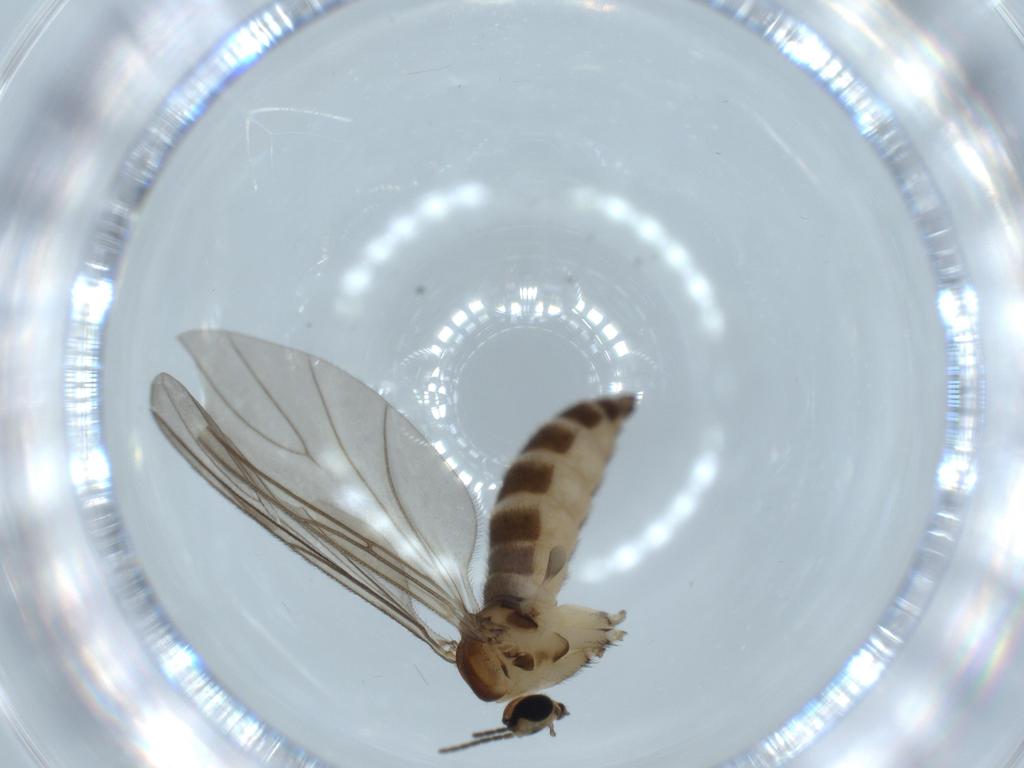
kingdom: Animalia
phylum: Arthropoda
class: Insecta
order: Diptera
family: Sciaridae
